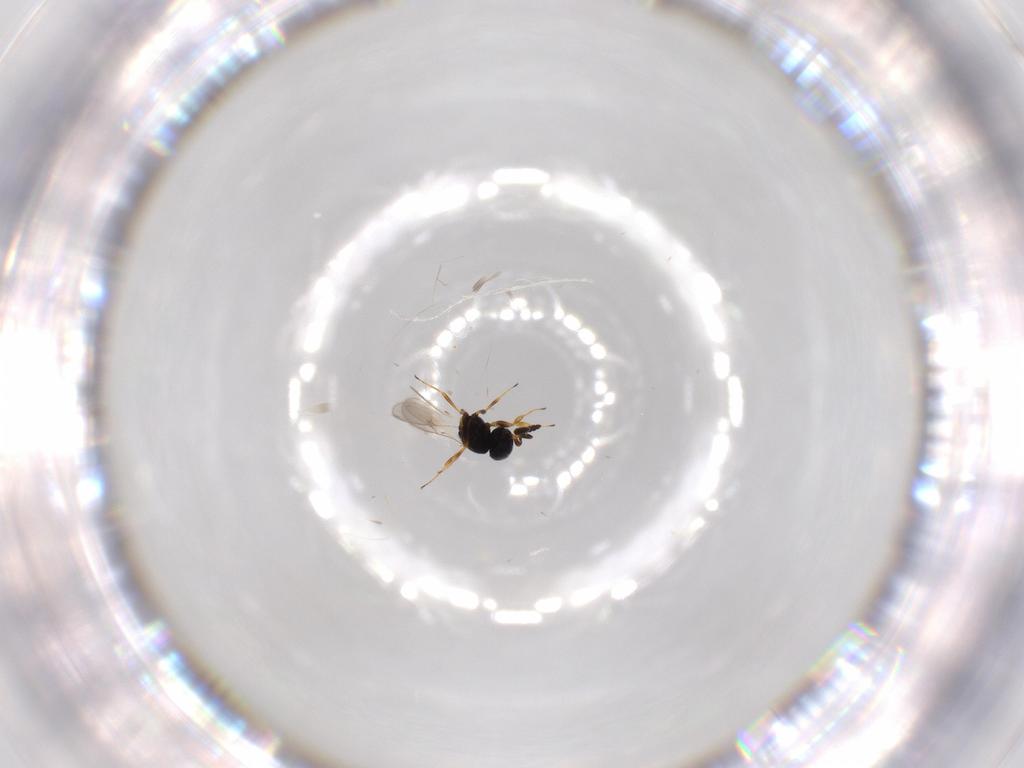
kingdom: Animalia
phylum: Arthropoda
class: Insecta
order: Hymenoptera
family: Scelionidae
